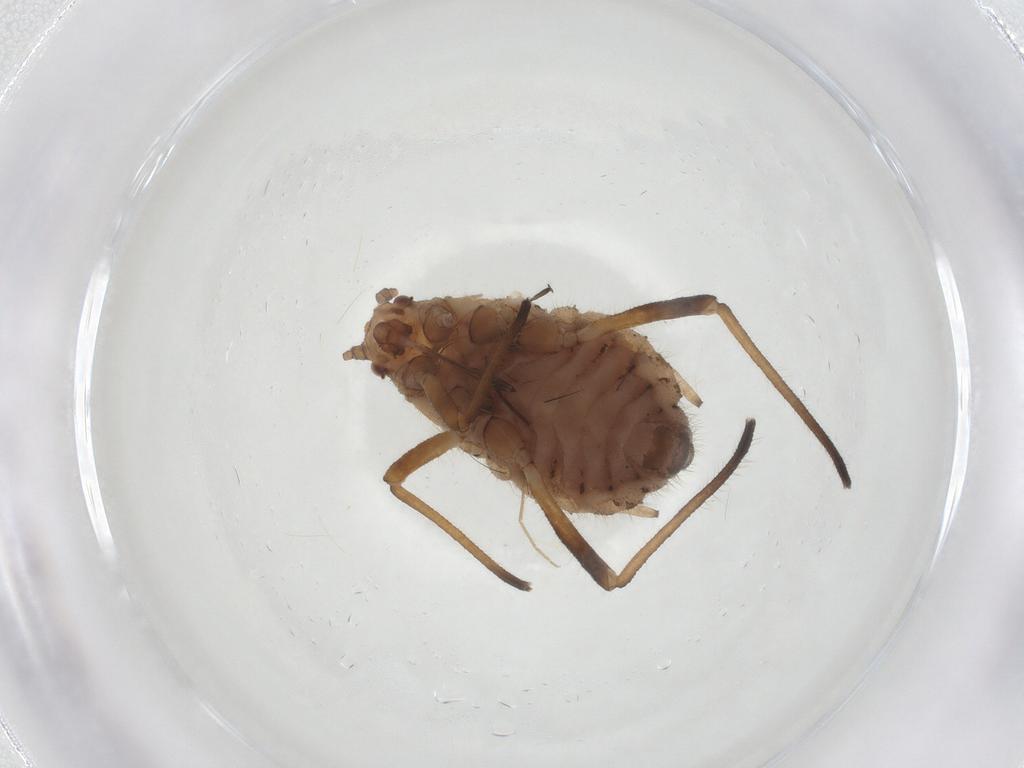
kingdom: Animalia
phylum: Arthropoda
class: Insecta
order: Hemiptera
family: Aphididae
